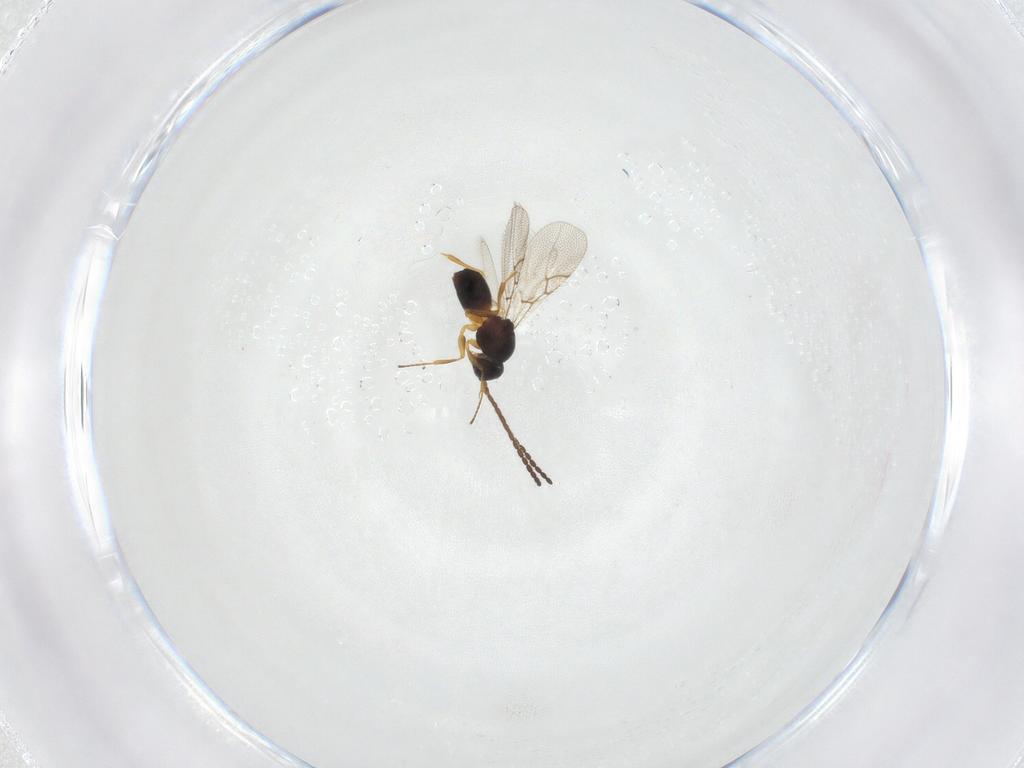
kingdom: Animalia
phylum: Arthropoda
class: Insecta
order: Hymenoptera
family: Figitidae
